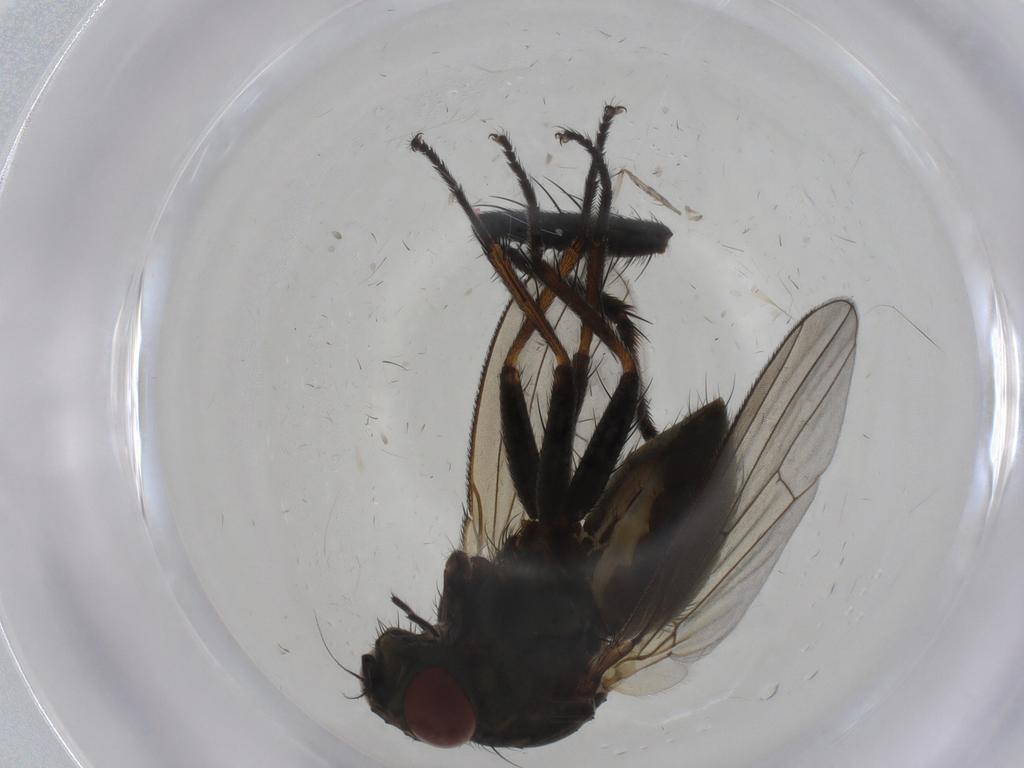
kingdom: Animalia
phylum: Arthropoda
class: Insecta
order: Diptera
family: Muscidae
